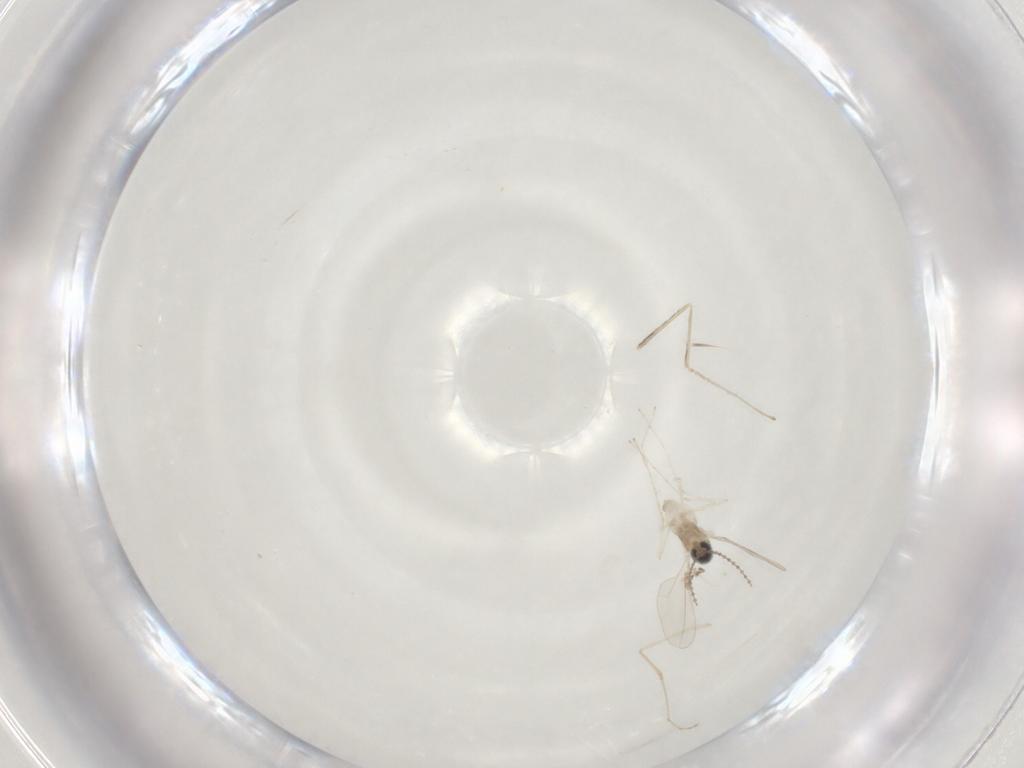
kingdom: Animalia
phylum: Arthropoda
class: Insecta
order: Diptera
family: Cecidomyiidae
